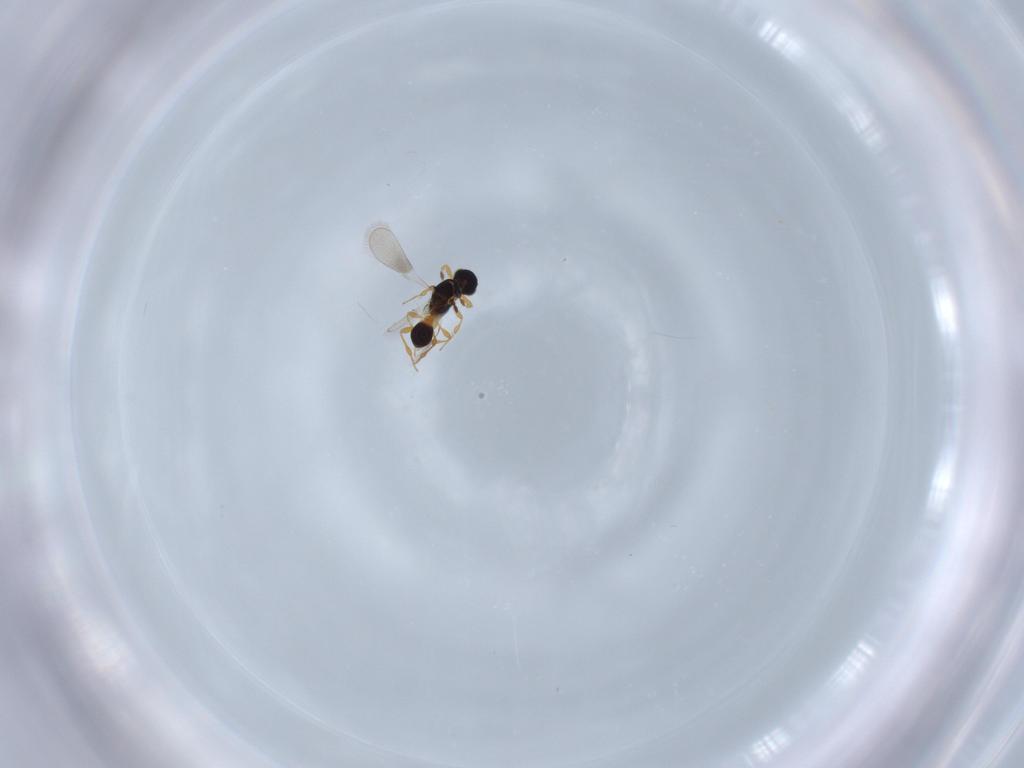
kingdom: Animalia
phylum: Arthropoda
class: Insecta
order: Hymenoptera
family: Platygastridae
